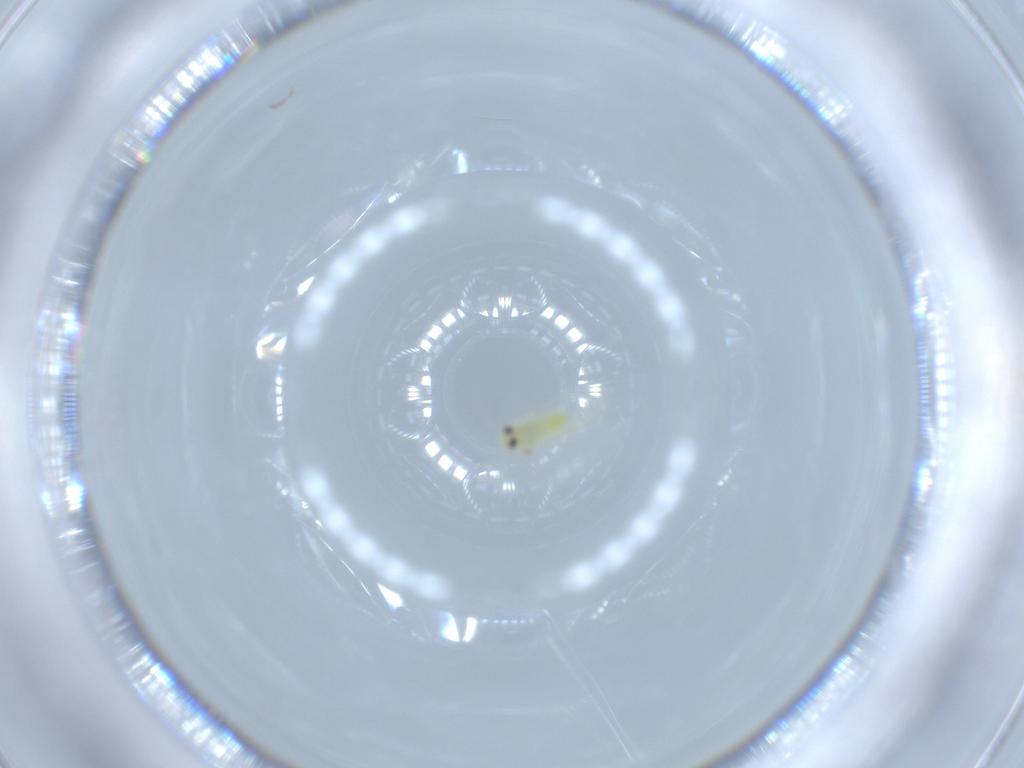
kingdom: Animalia
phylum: Arthropoda
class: Insecta
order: Hemiptera
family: Aleyrodidae
